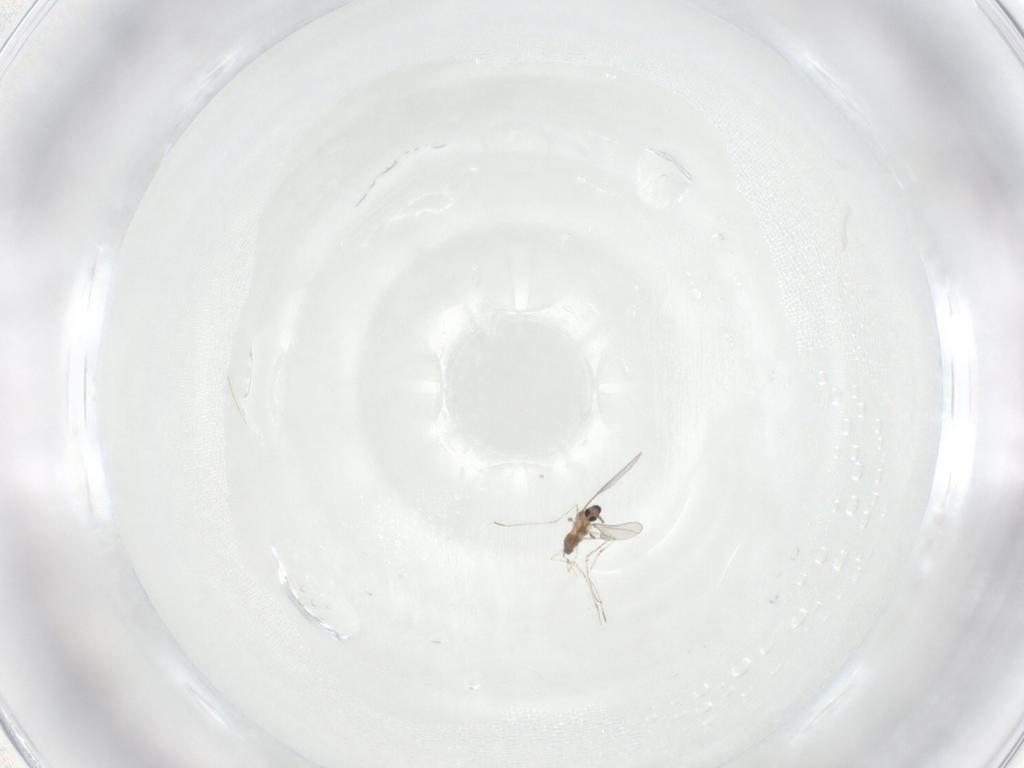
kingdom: Animalia
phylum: Arthropoda
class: Insecta
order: Diptera
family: Cecidomyiidae
